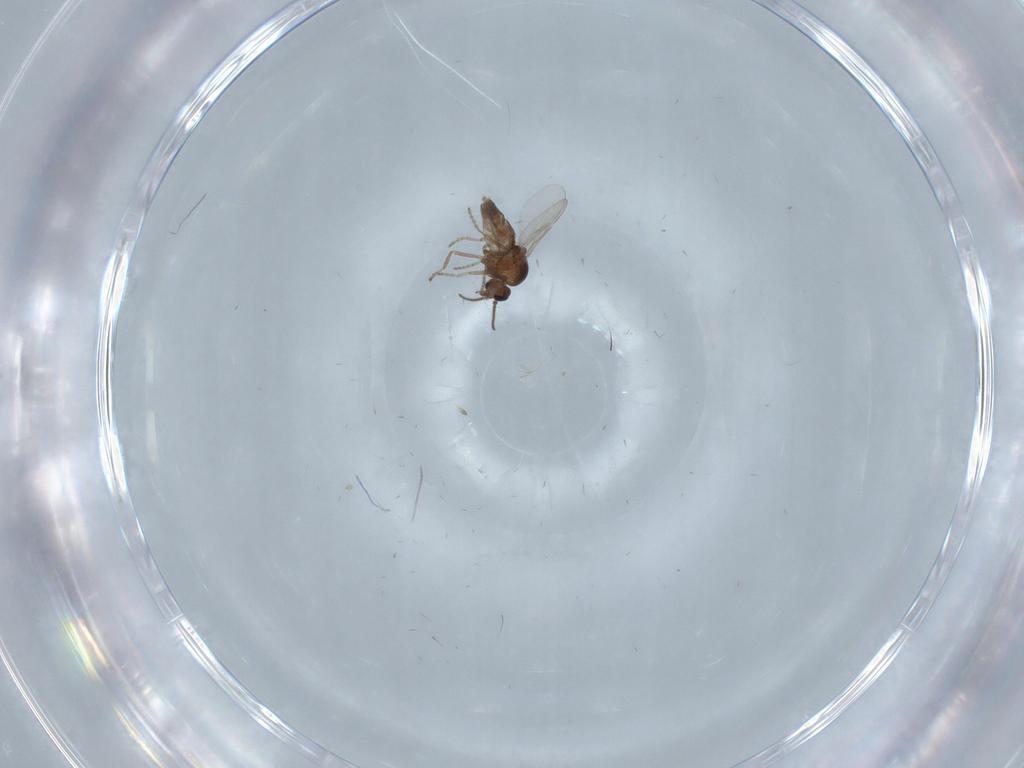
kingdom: Animalia
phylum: Arthropoda
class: Insecta
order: Diptera
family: Ceratopogonidae
